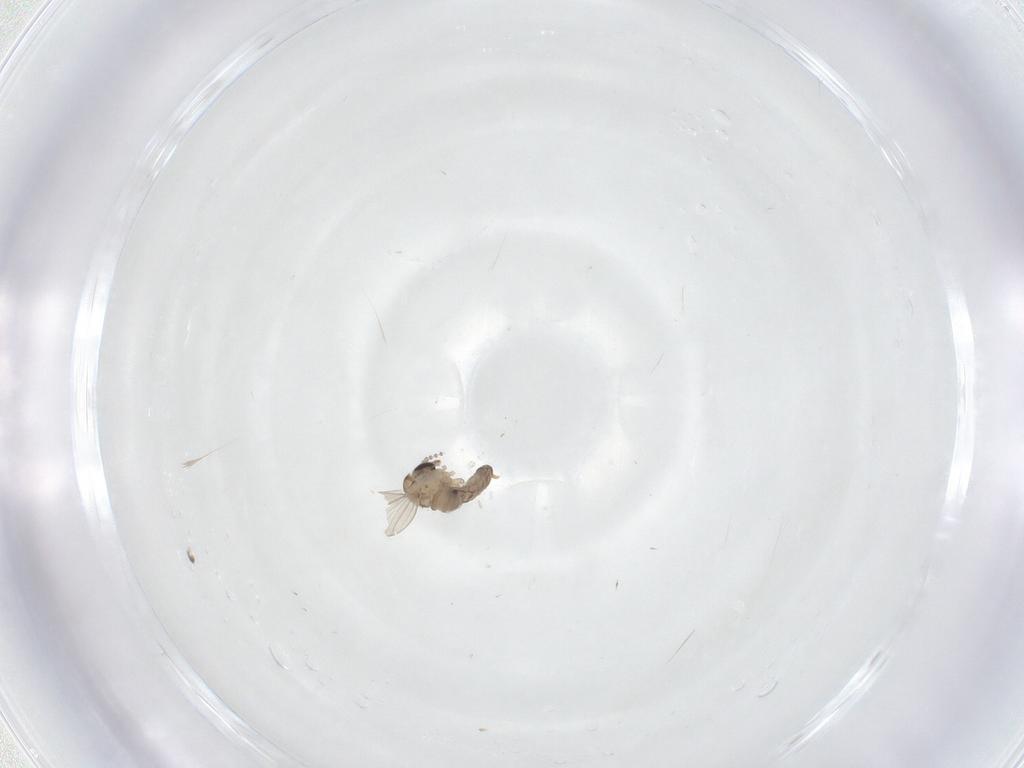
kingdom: Animalia
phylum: Arthropoda
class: Insecta
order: Diptera
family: Psychodidae
